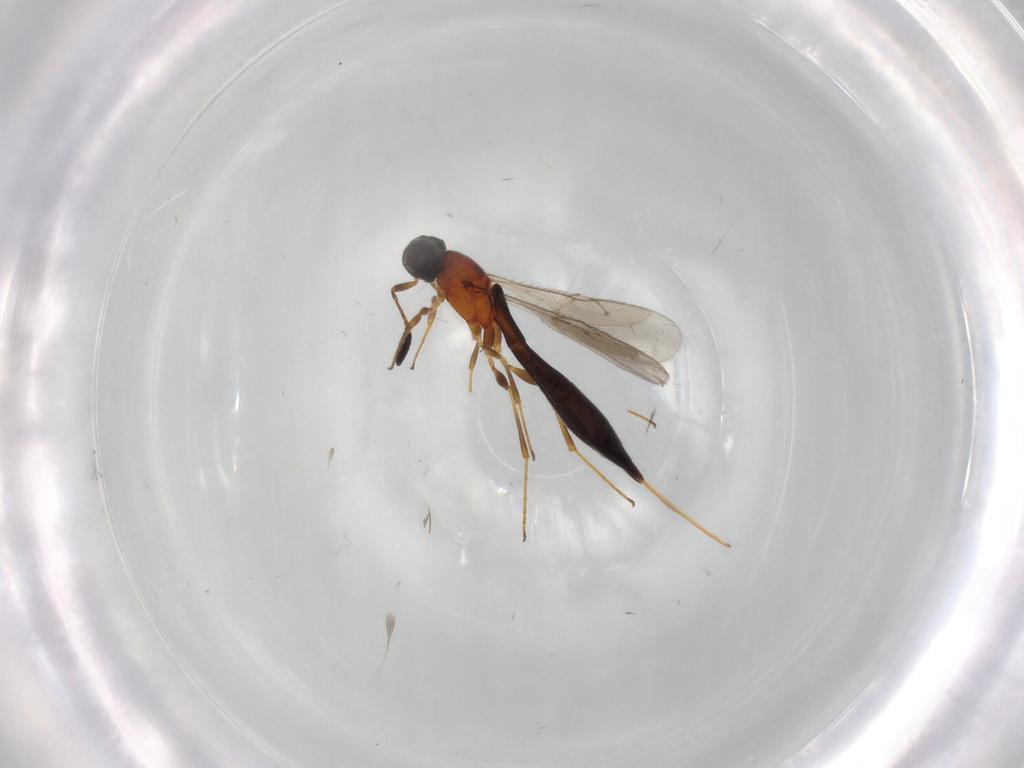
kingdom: Animalia
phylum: Arthropoda
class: Insecta
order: Hymenoptera
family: Scelionidae
